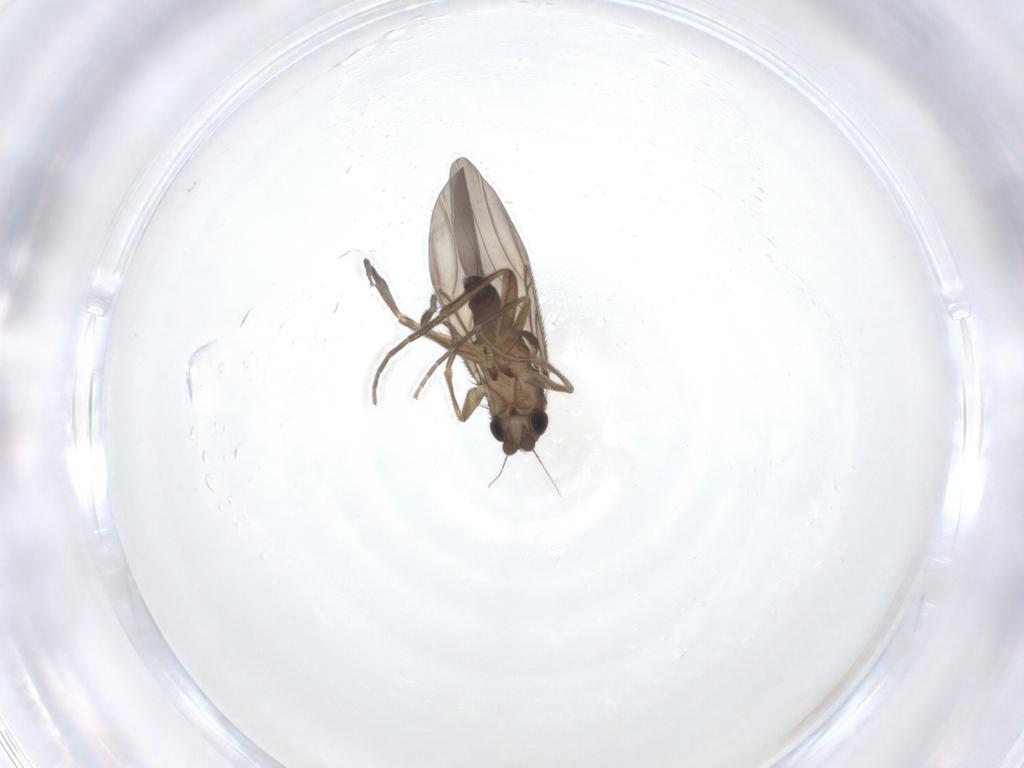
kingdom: Animalia
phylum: Arthropoda
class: Insecta
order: Diptera
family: Phoridae
